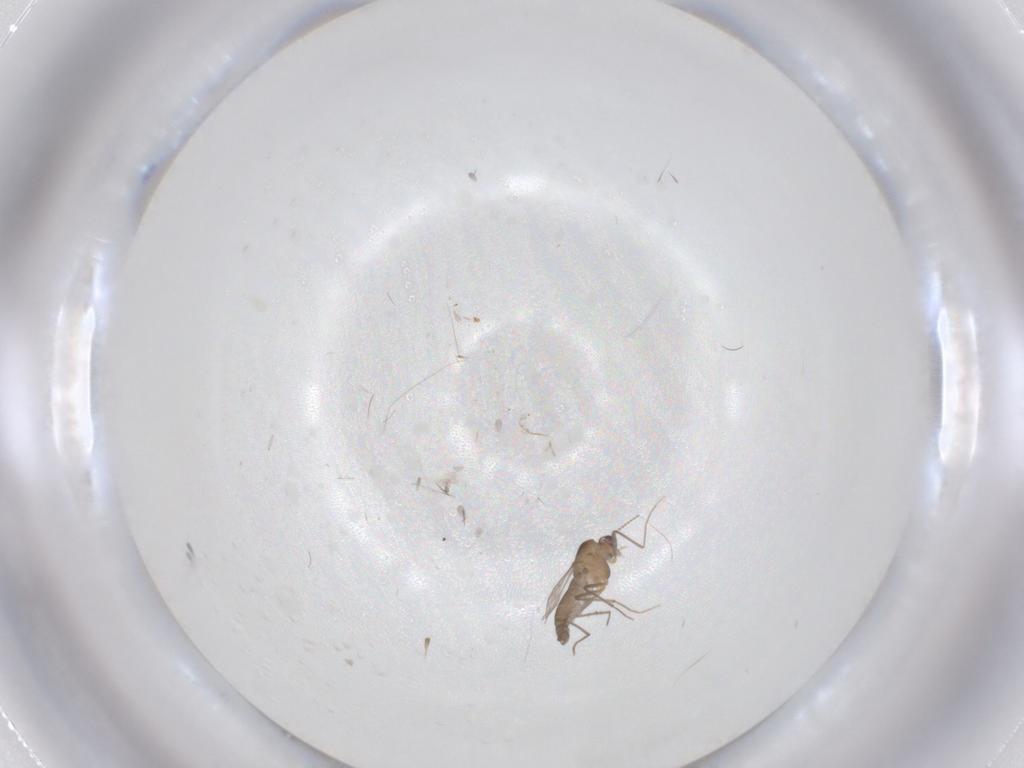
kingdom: Animalia
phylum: Arthropoda
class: Insecta
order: Diptera
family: Chironomidae
